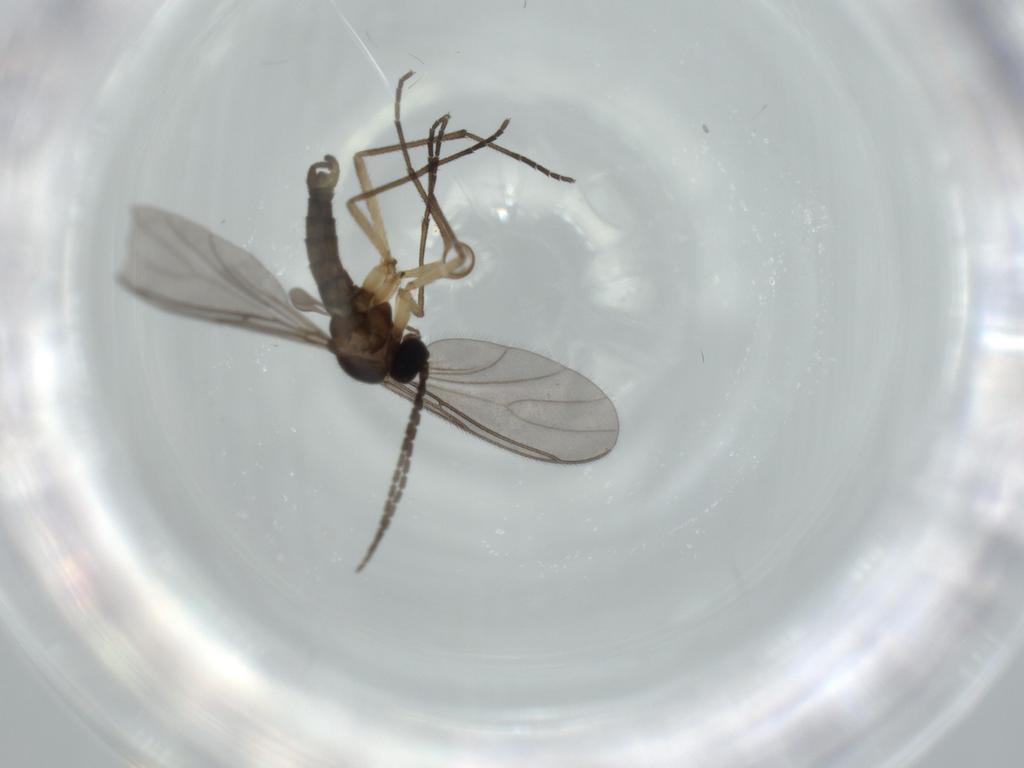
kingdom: Animalia
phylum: Arthropoda
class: Insecta
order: Diptera
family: Sciaridae
